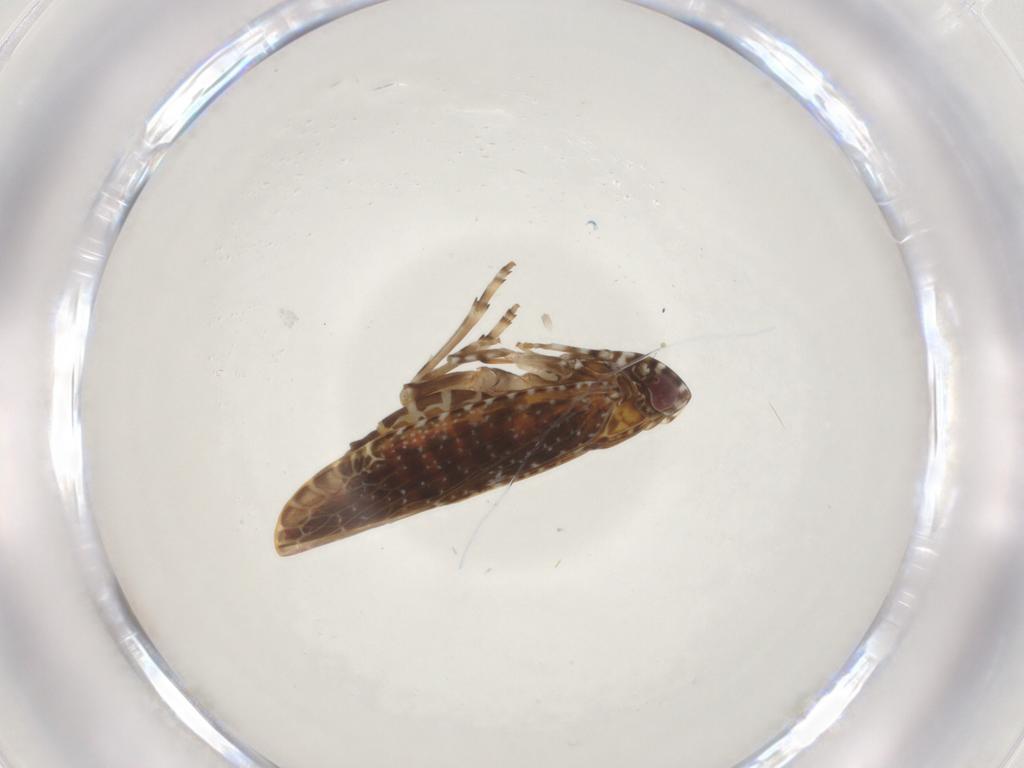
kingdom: Animalia
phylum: Arthropoda
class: Insecta
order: Hemiptera
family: Achilidae
